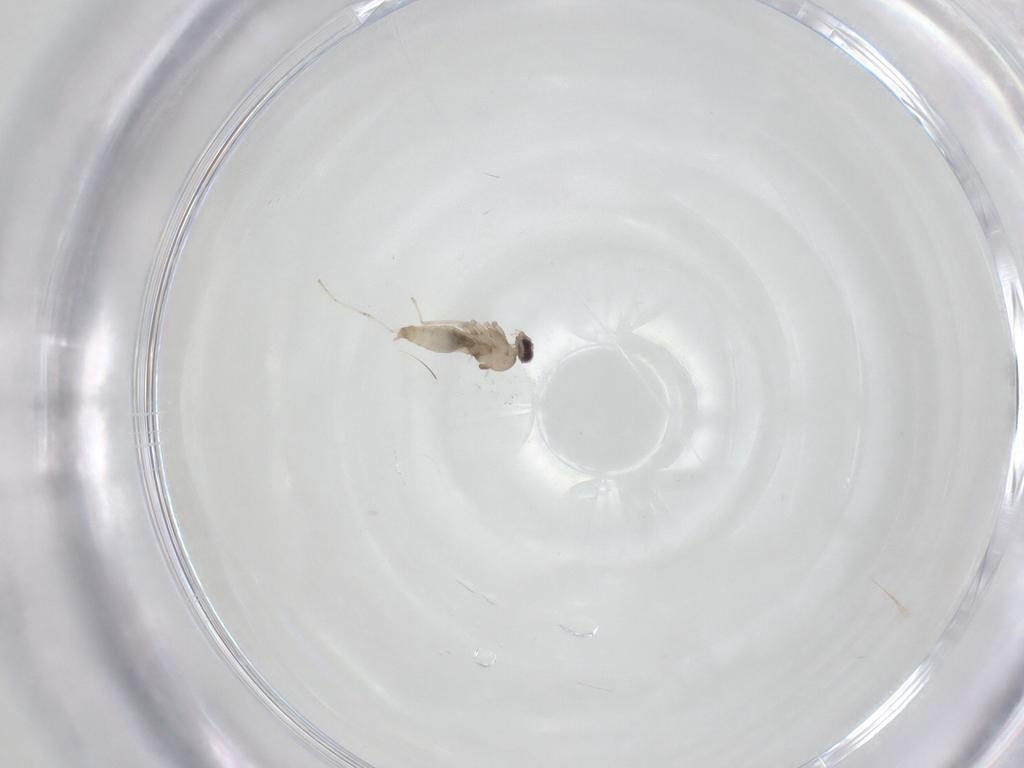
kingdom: Animalia
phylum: Arthropoda
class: Insecta
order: Diptera
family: Cecidomyiidae
